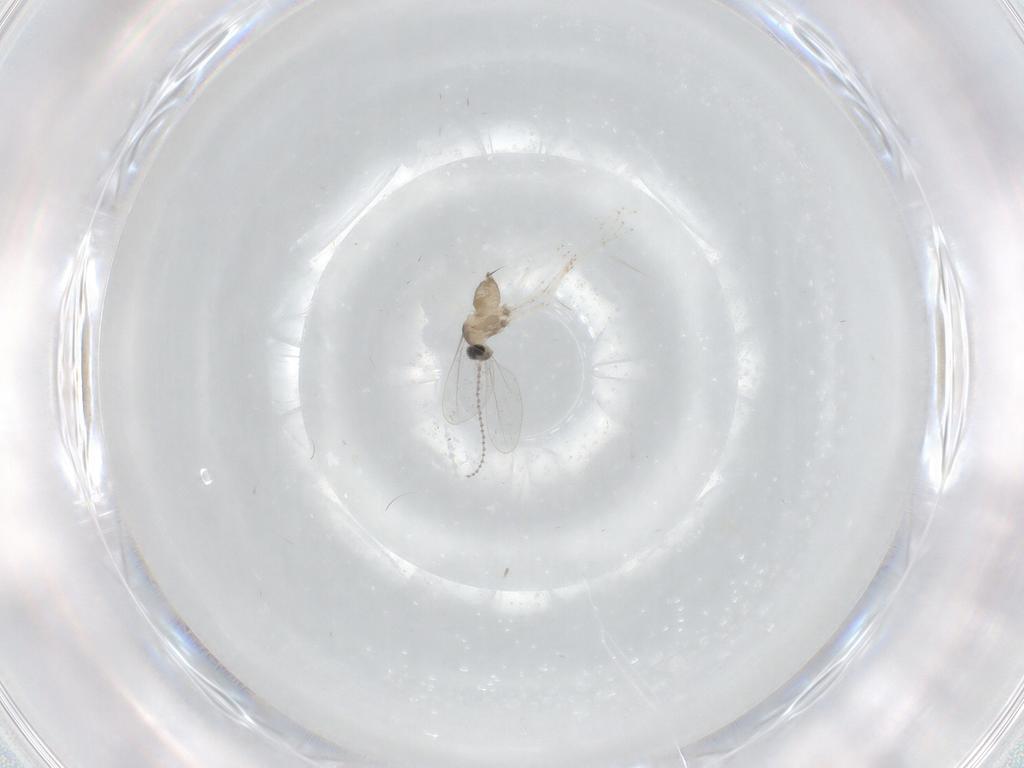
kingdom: Animalia
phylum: Arthropoda
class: Insecta
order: Diptera
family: Cecidomyiidae
